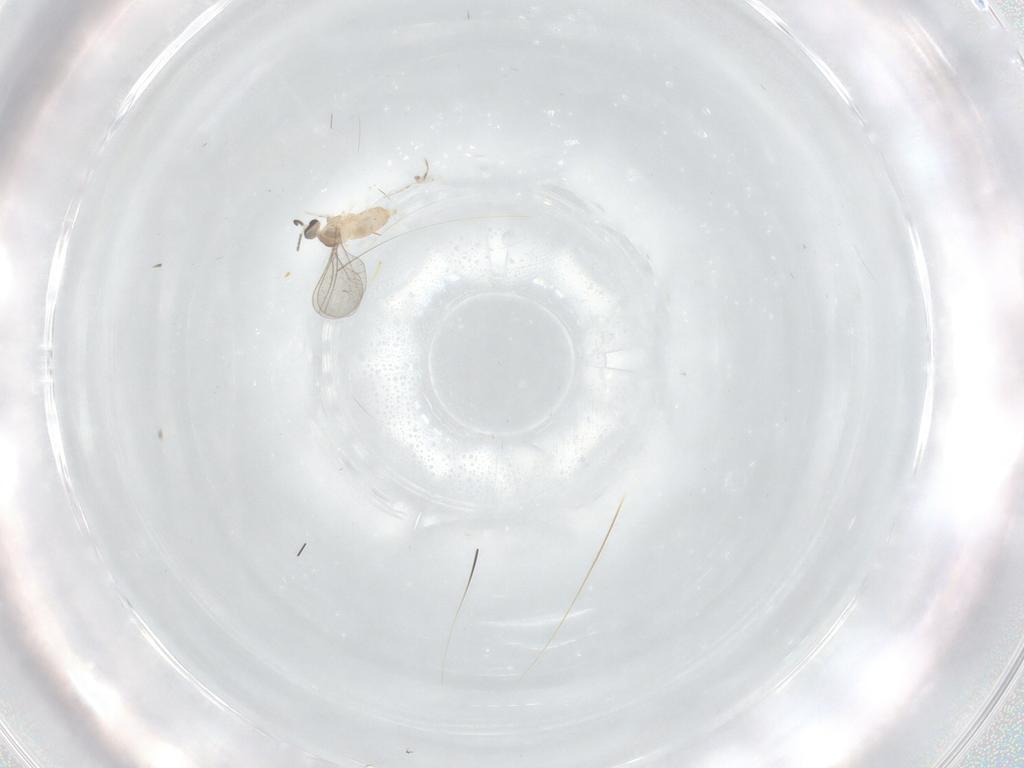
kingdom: Animalia
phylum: Arthropoda
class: Insecta
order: Diptera
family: Cecidomyiidae
